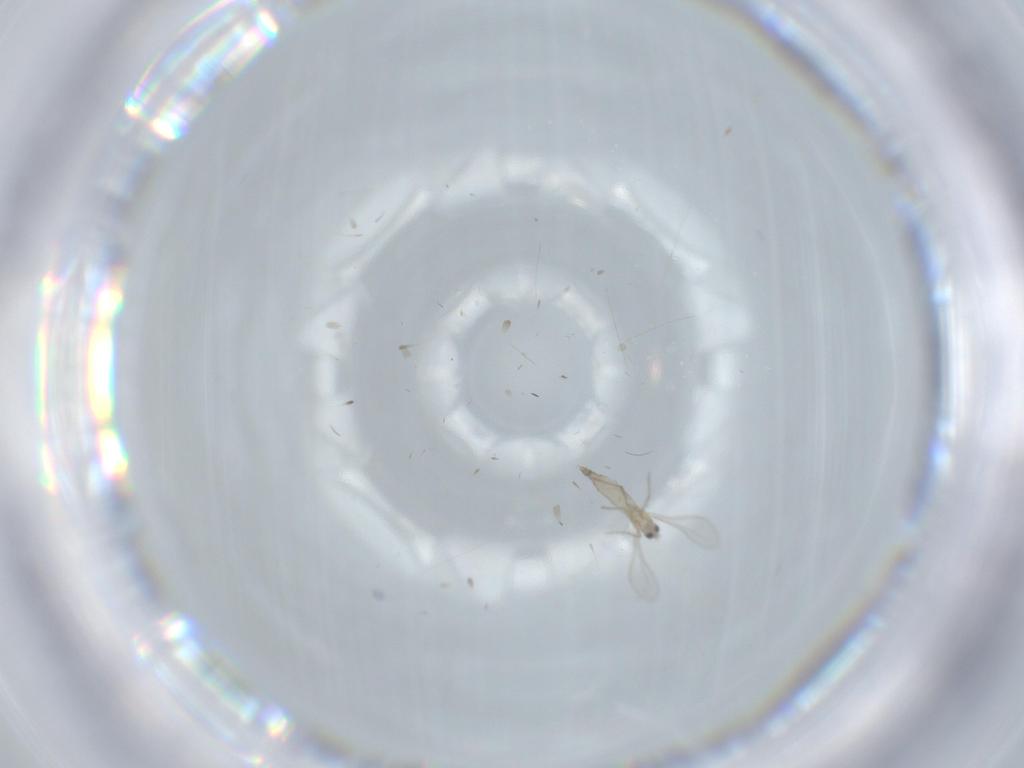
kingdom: Animalia
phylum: Arthropoda
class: Insecta
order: Diptera
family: Cecidomyiidae
